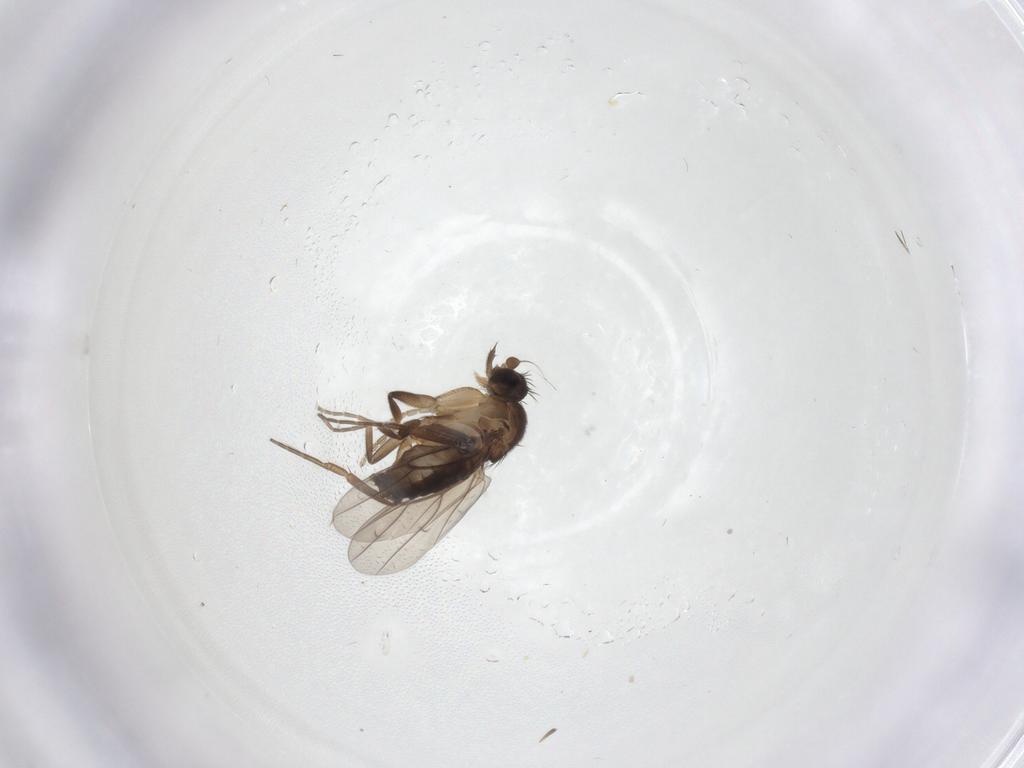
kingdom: Animalia
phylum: Arthropoda
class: Insecta
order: Diptera
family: Phoridae
